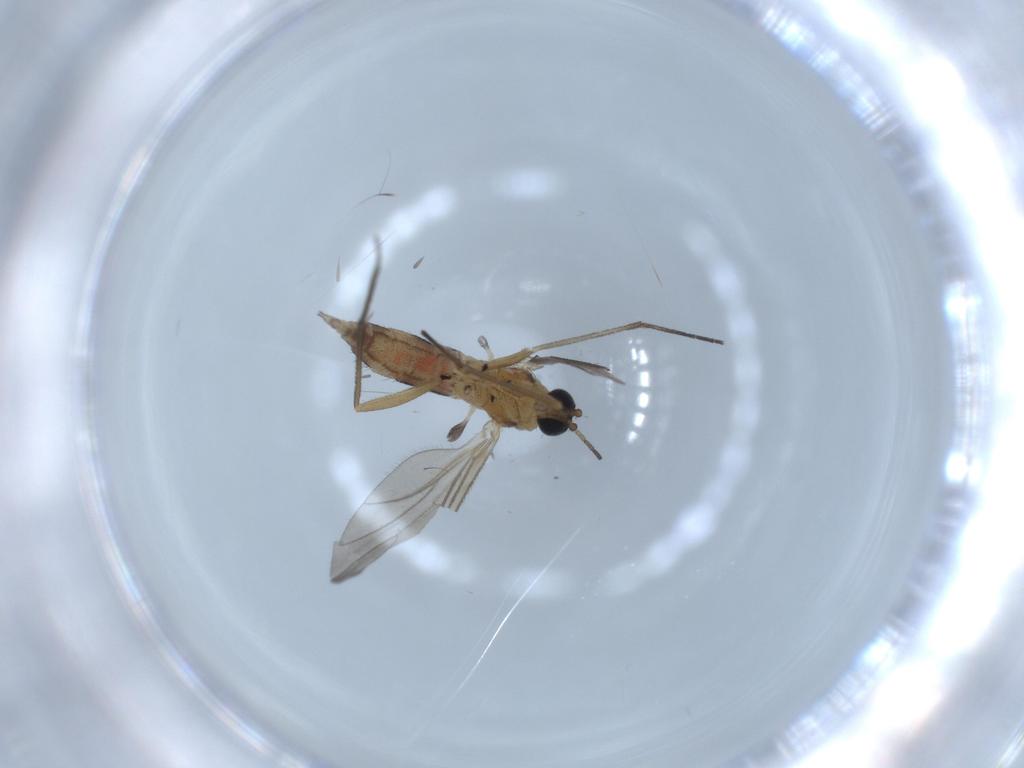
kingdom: Animalia
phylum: Arthropoda
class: Insecta
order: Diptera
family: Sciaridae
